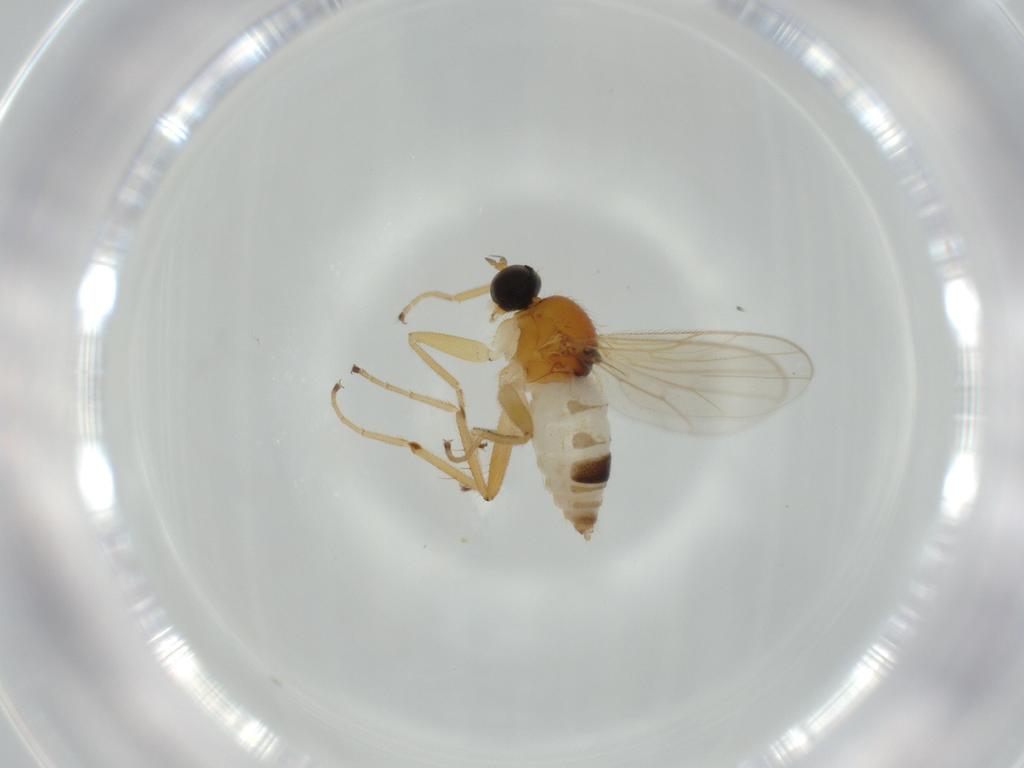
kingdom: Animalia
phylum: Arthropoda
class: Insecta
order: Diptera
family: Hybotidae
